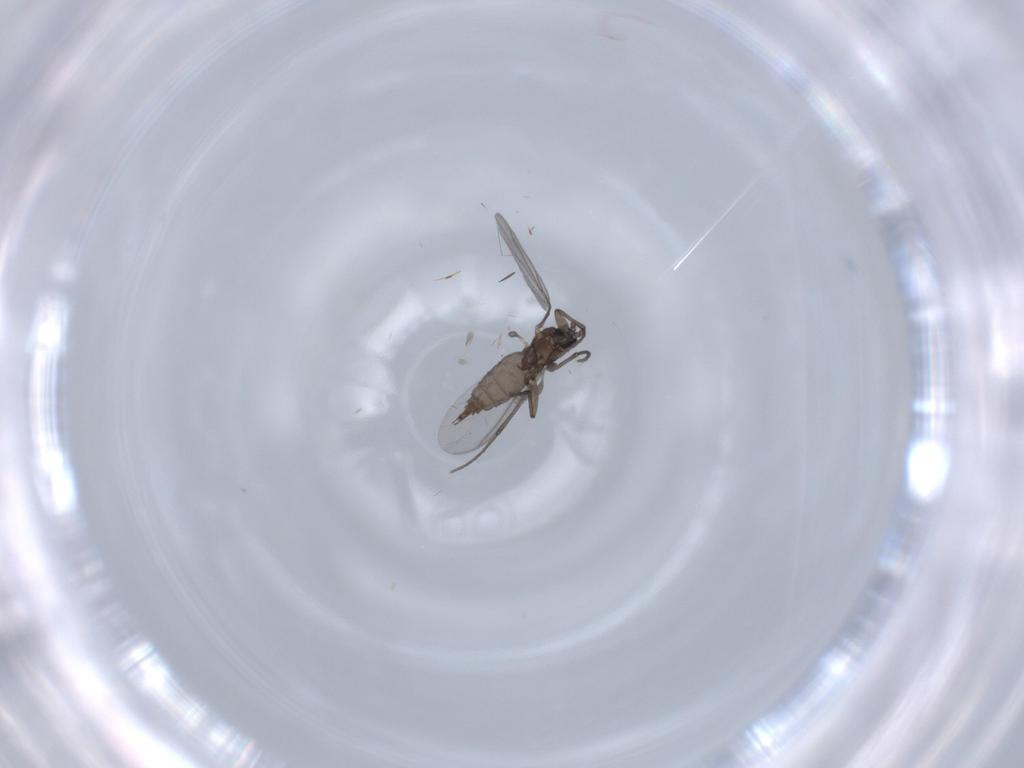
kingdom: Animalia
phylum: Arthropoda
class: Insecta
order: Diptera
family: Sciaridae
